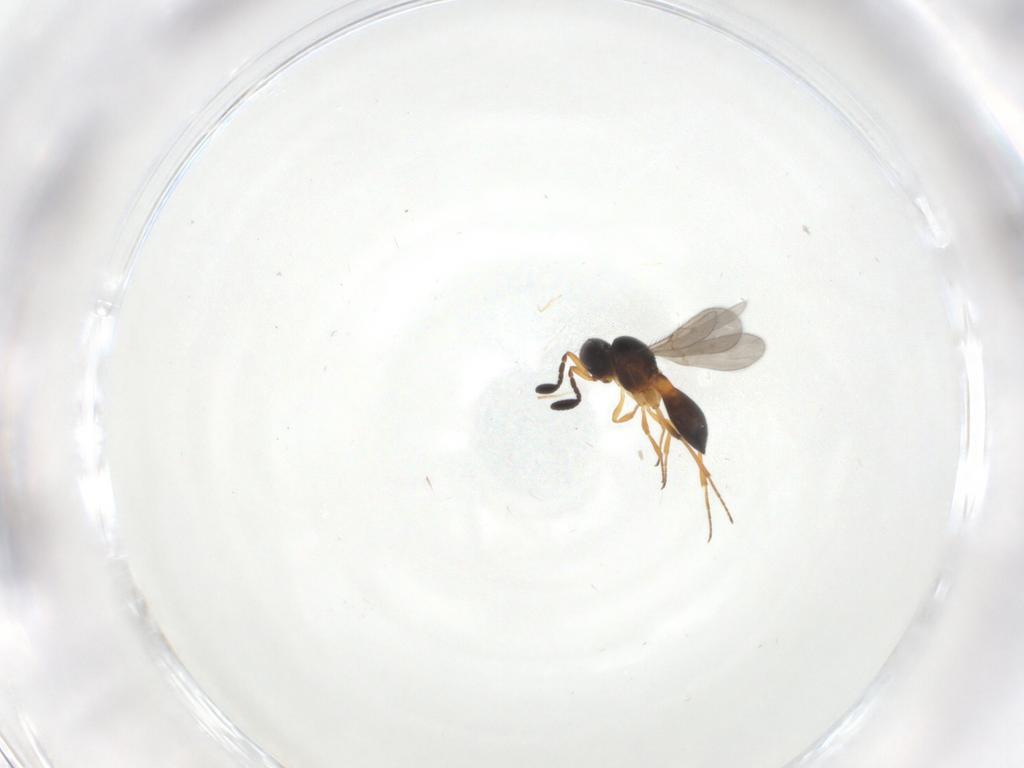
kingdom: Animalia
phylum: Arthropoda
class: Insecta
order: Hymenoptera
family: Scelionidae
